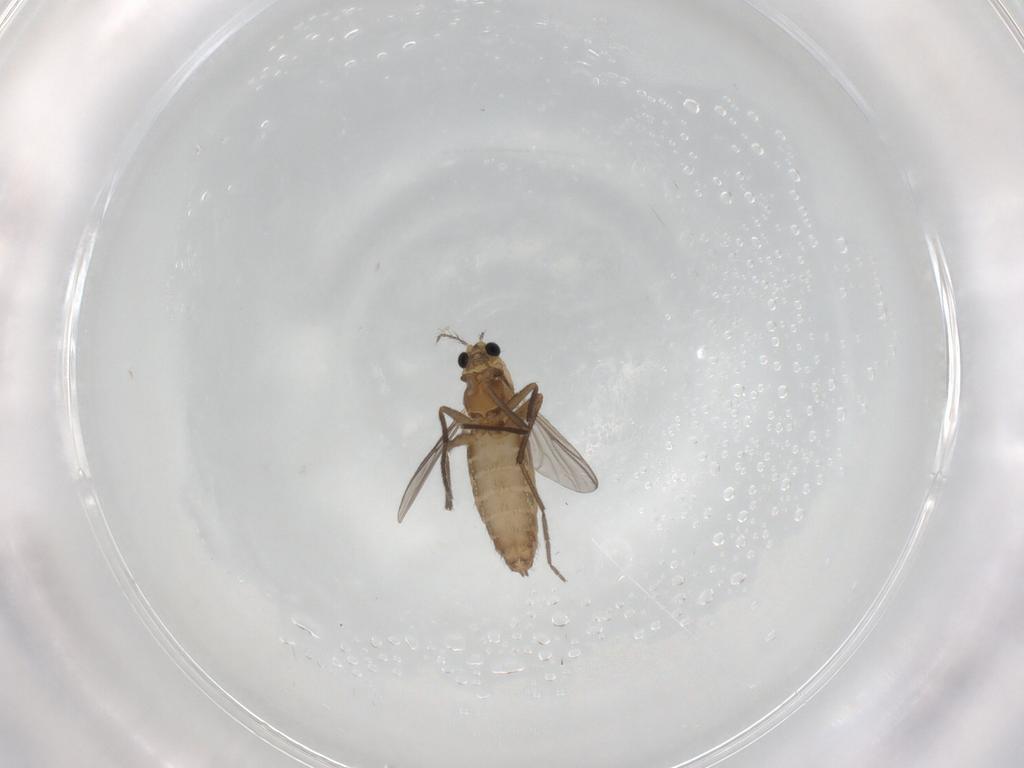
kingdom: Animalia
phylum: Arthropoda
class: Insecta
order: Diptera
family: Chironomidae
